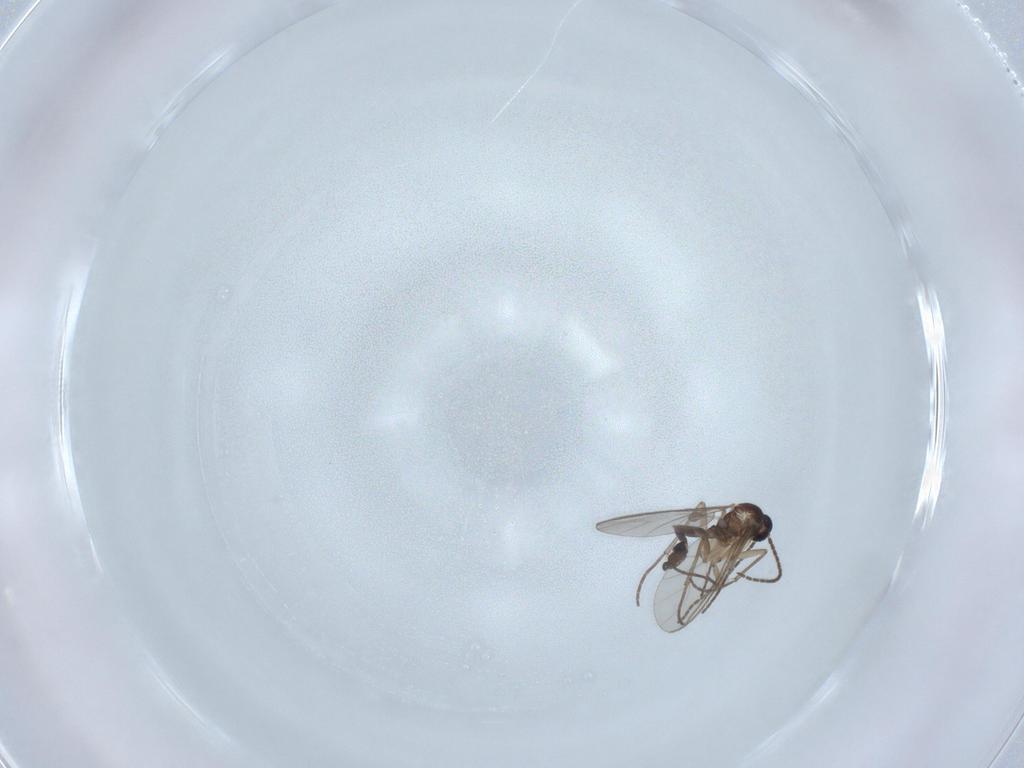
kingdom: Animalia
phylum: Arthropoda
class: Insecta
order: Diptera
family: Sciaridae
